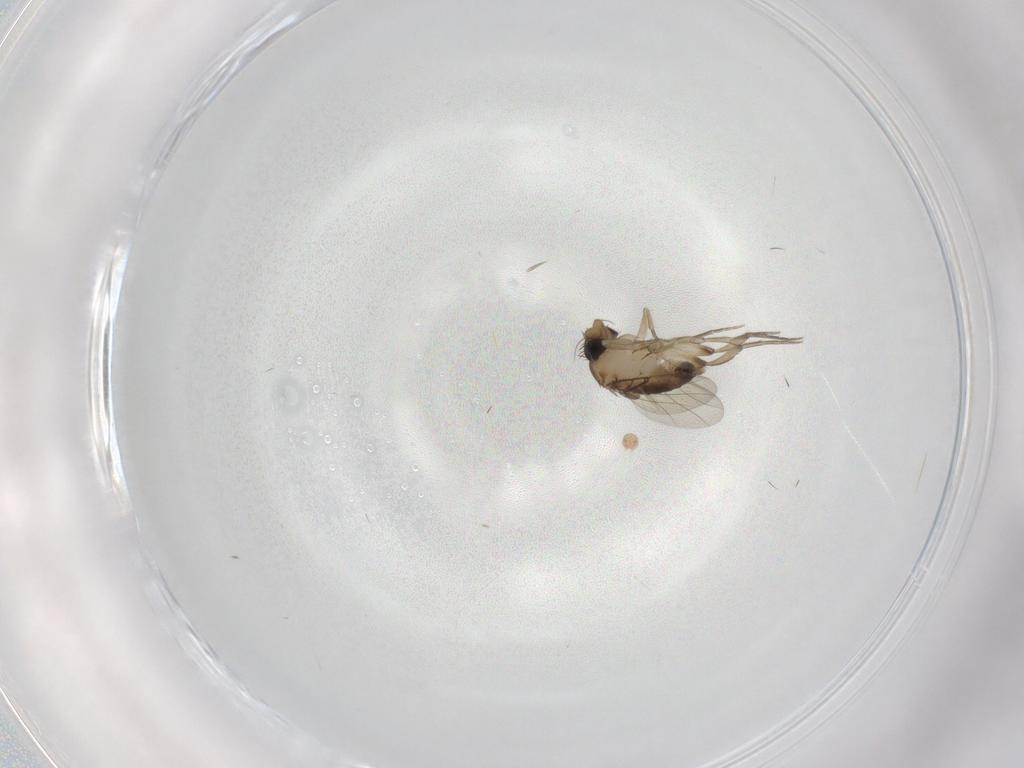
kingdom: Animalia
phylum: Arthropoda
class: Insecta
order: Diptera
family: Phoridae
